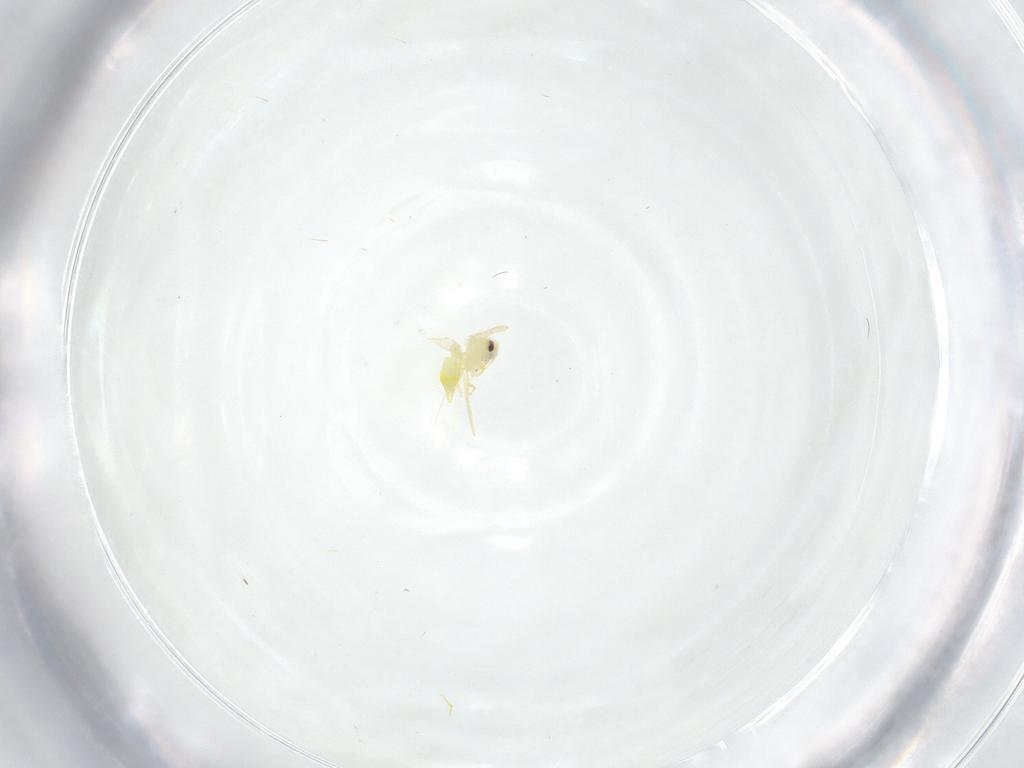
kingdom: Animalia
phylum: Arthropoda
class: Insecta
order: Hemiptera
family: Aleyrodidae
